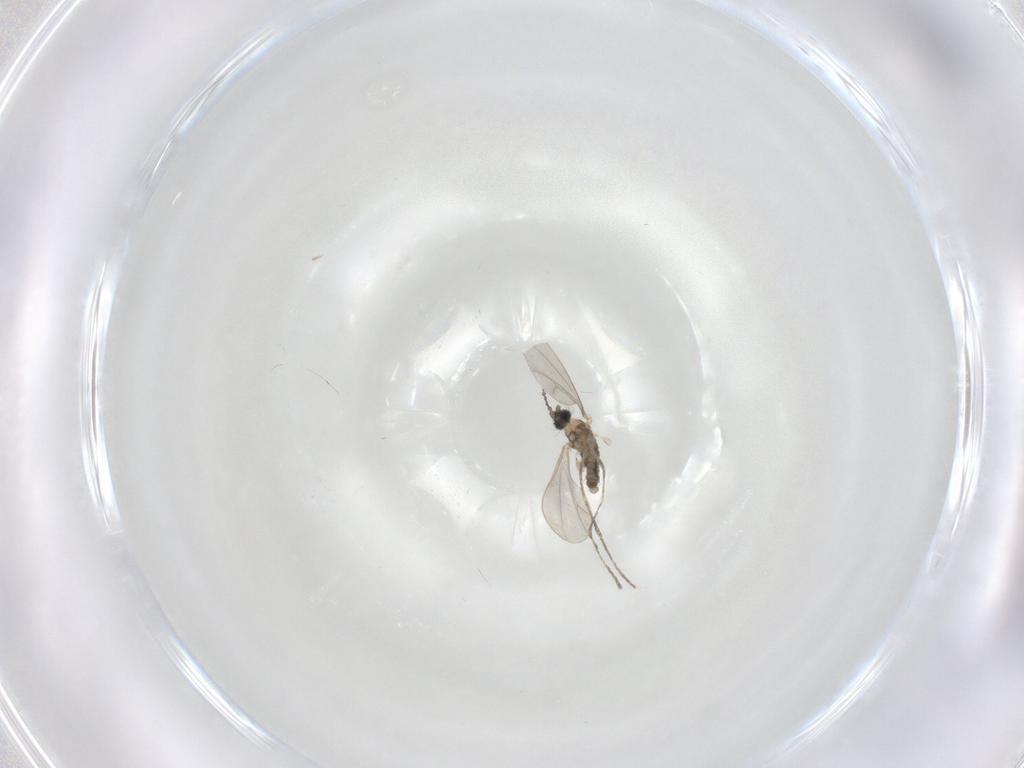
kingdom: Animalia
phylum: Arthropoda
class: Insecta
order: Diptera
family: Cecidomyiidae
